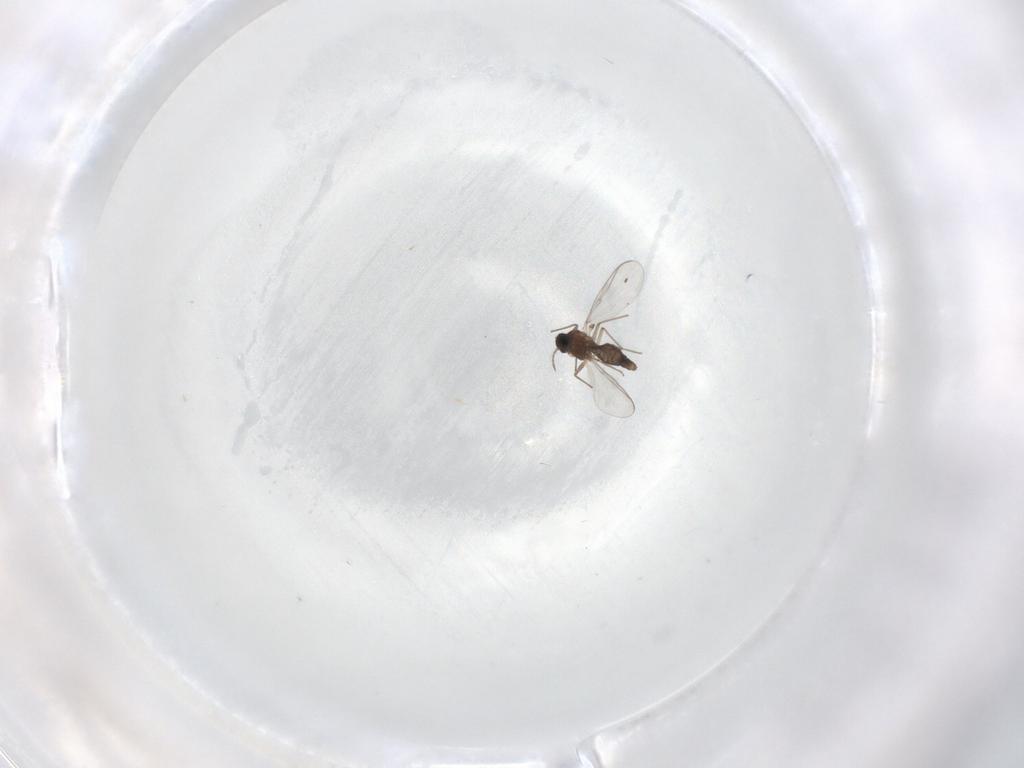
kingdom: Animalia
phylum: Arthropoda
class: Insecta
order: Diptera
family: Chironomidae
